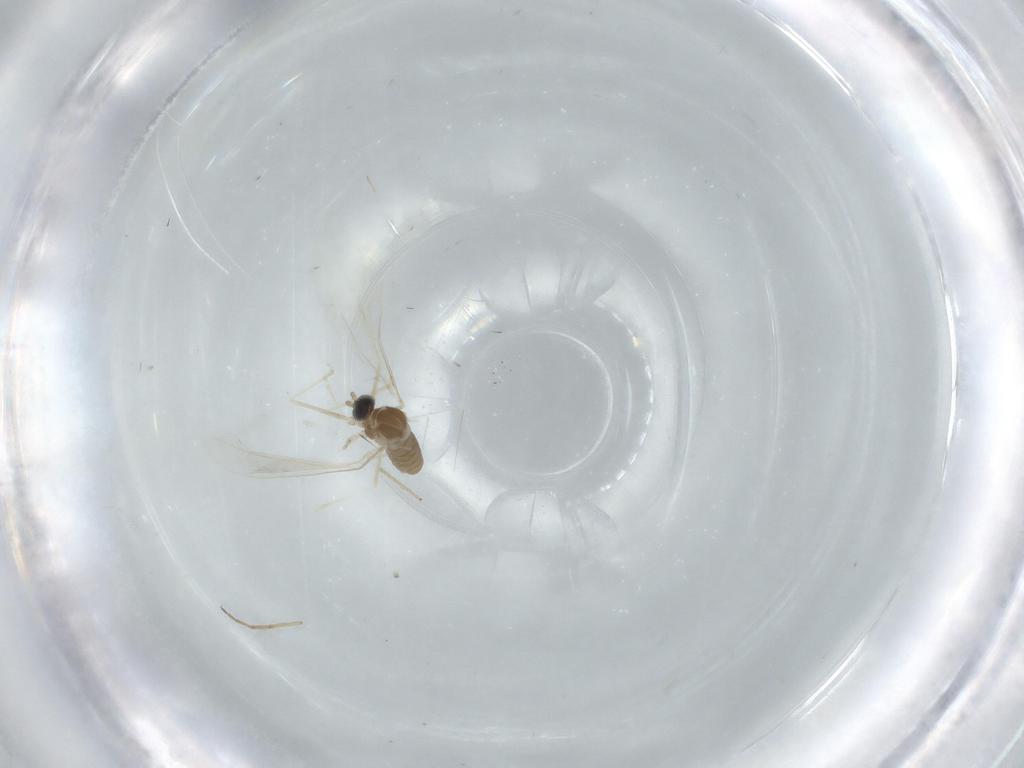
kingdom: Animalia
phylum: Arthropoda
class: Insecta
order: Diptera
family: Cecidomyiidae
